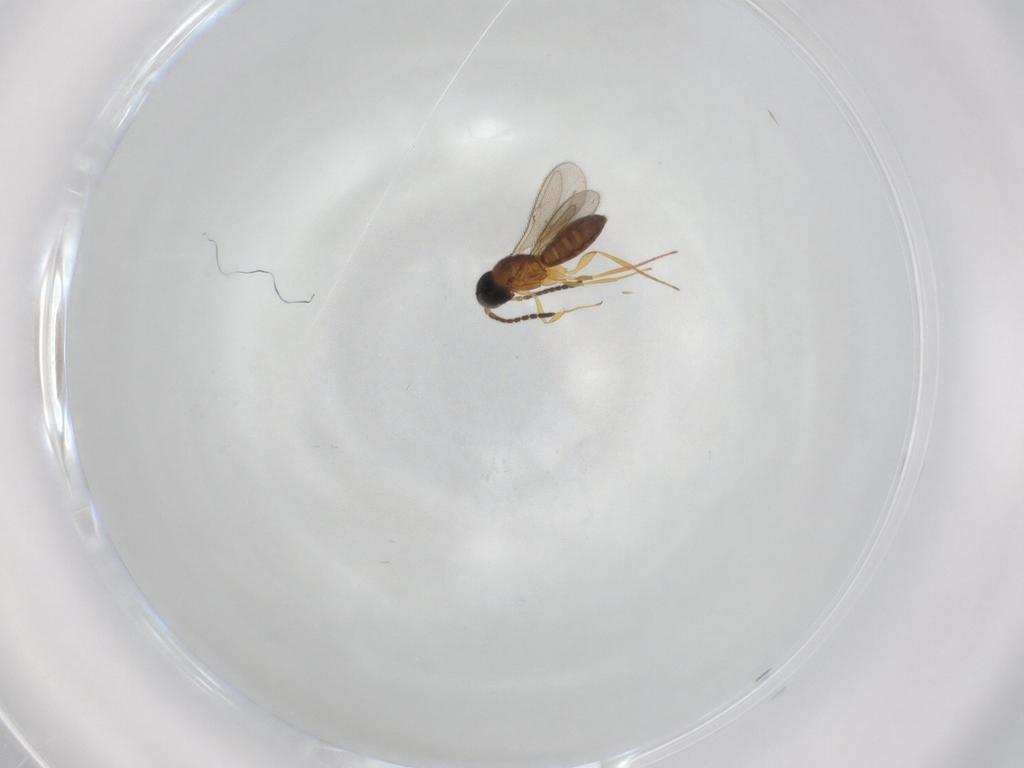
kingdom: Animalia
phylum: Arthropoda
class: Insecta
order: Hymenoptera
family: Scelionidae
